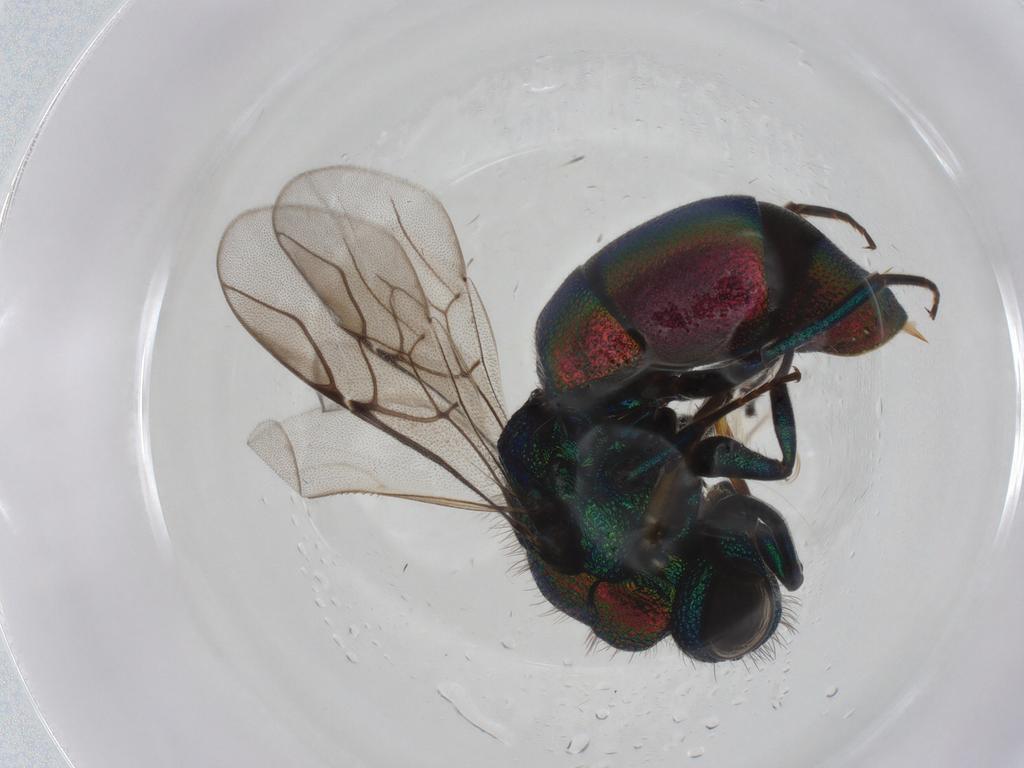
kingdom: Animalia
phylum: Arthropoda
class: Insecta
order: Hymenoptera
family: Chrysididae
